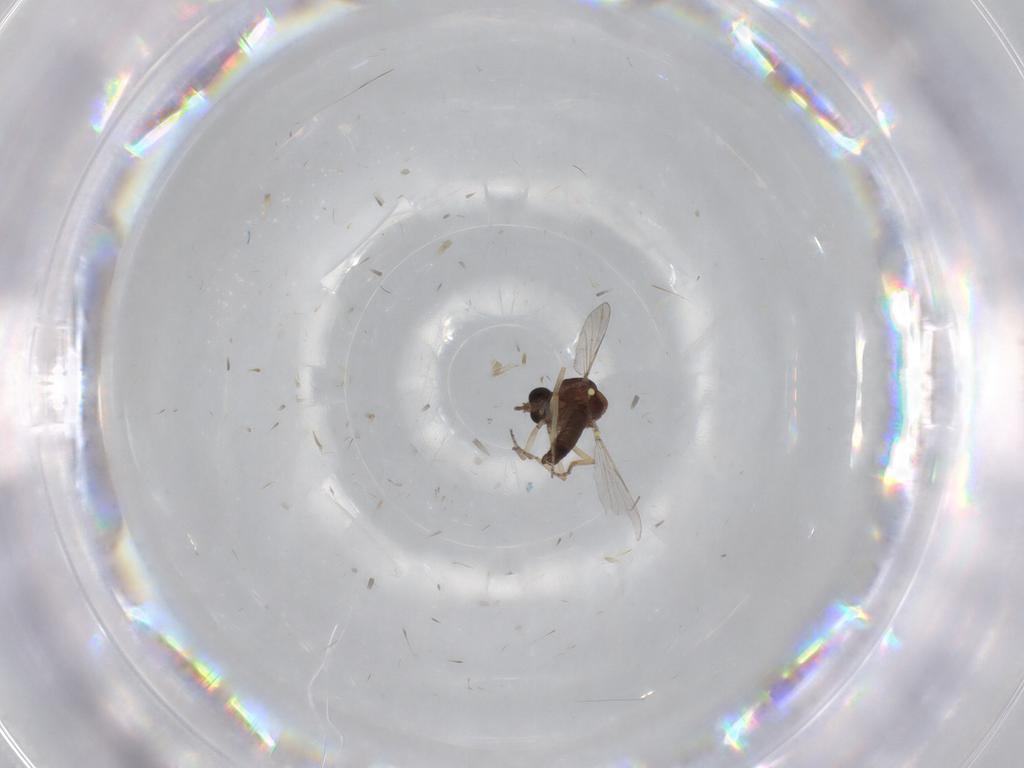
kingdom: Animalia
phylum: Arthropoda
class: Insecta
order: Diptera
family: Ceratopogonidae
